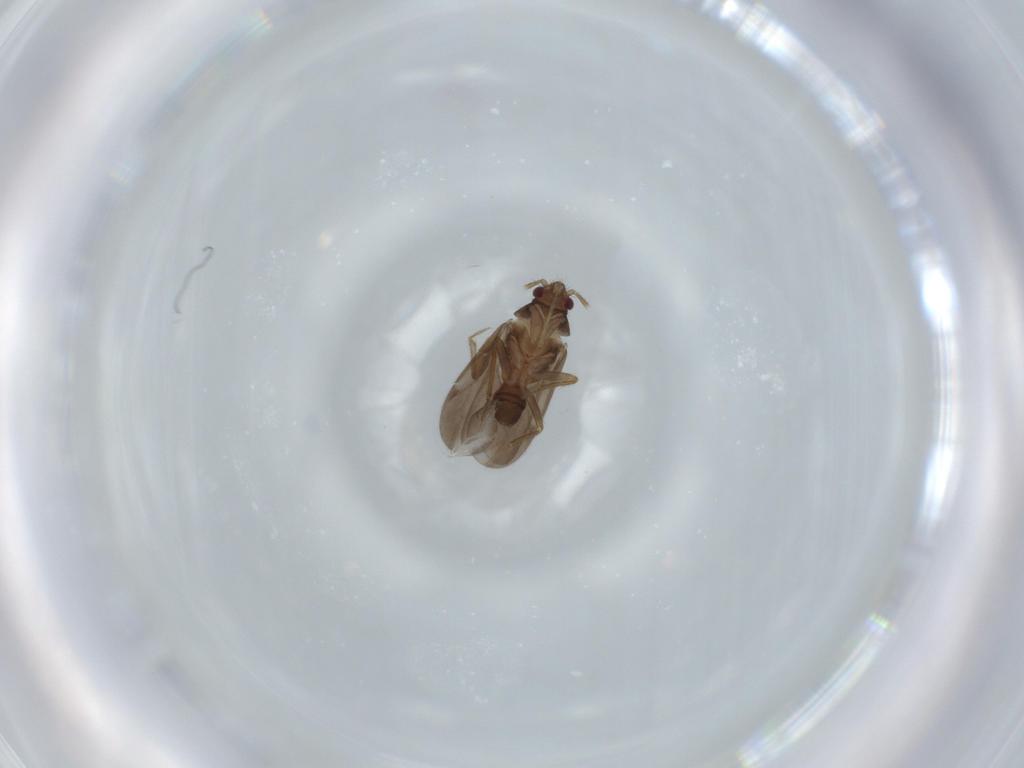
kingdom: Animalia
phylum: Arthropoda
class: Insecta
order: Hemiptera
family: Ceratocombidae
